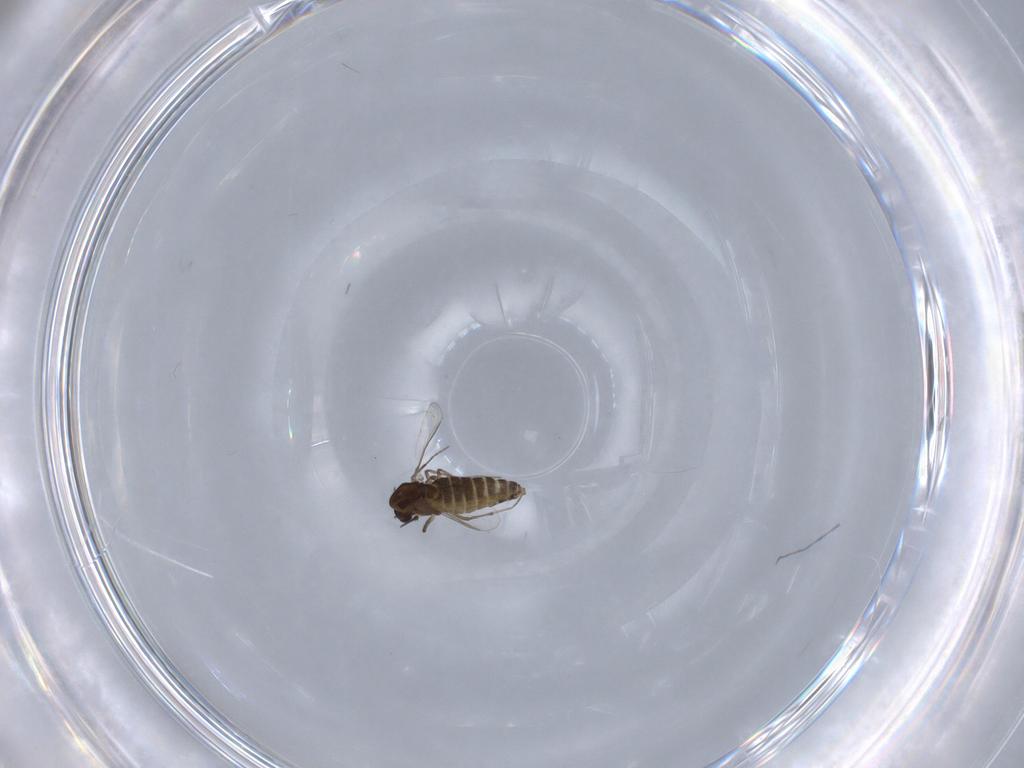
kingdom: Animalia
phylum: Arthropoda
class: Insecta
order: Diptera
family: Chironomidae
